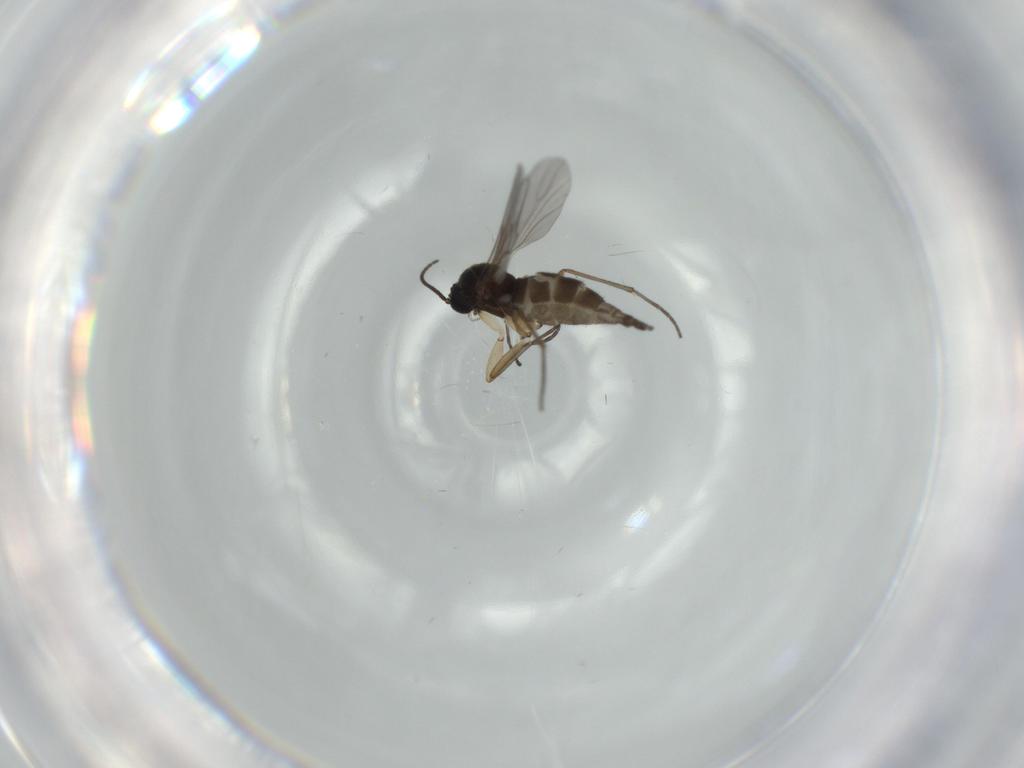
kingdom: Animalia
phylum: Arthropoda
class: Insecta
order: Diptera
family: Sciaridae
